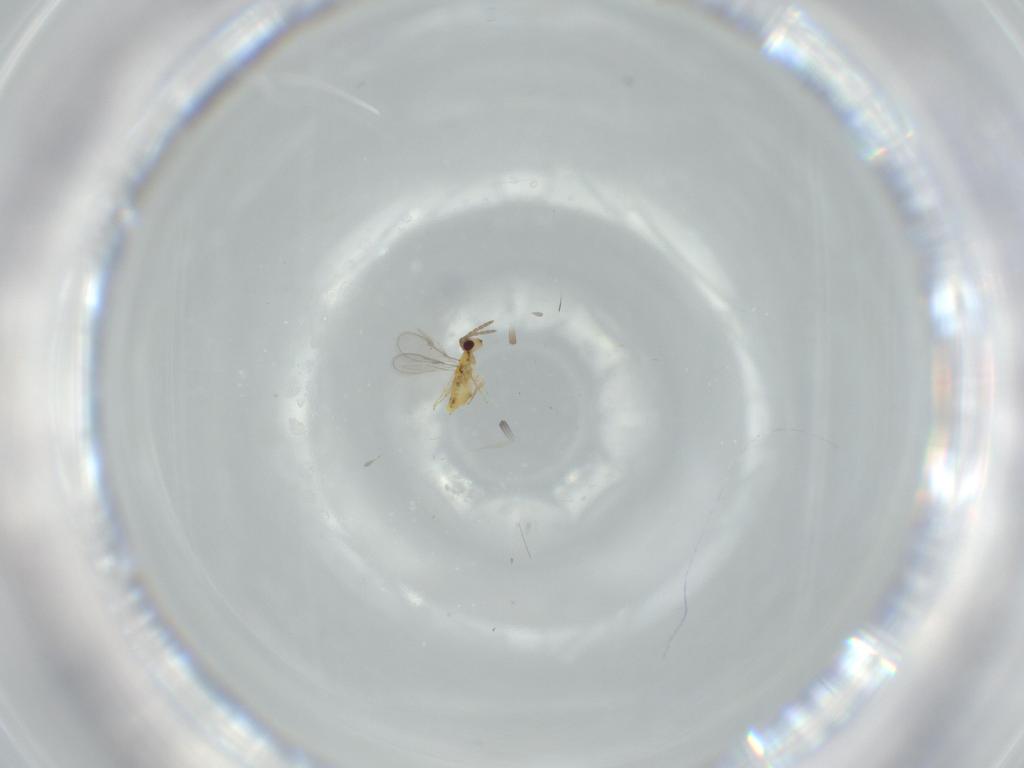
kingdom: Animalia
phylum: Arthropoda
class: Insecta
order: Hymenoptera
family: Aphelinidae
